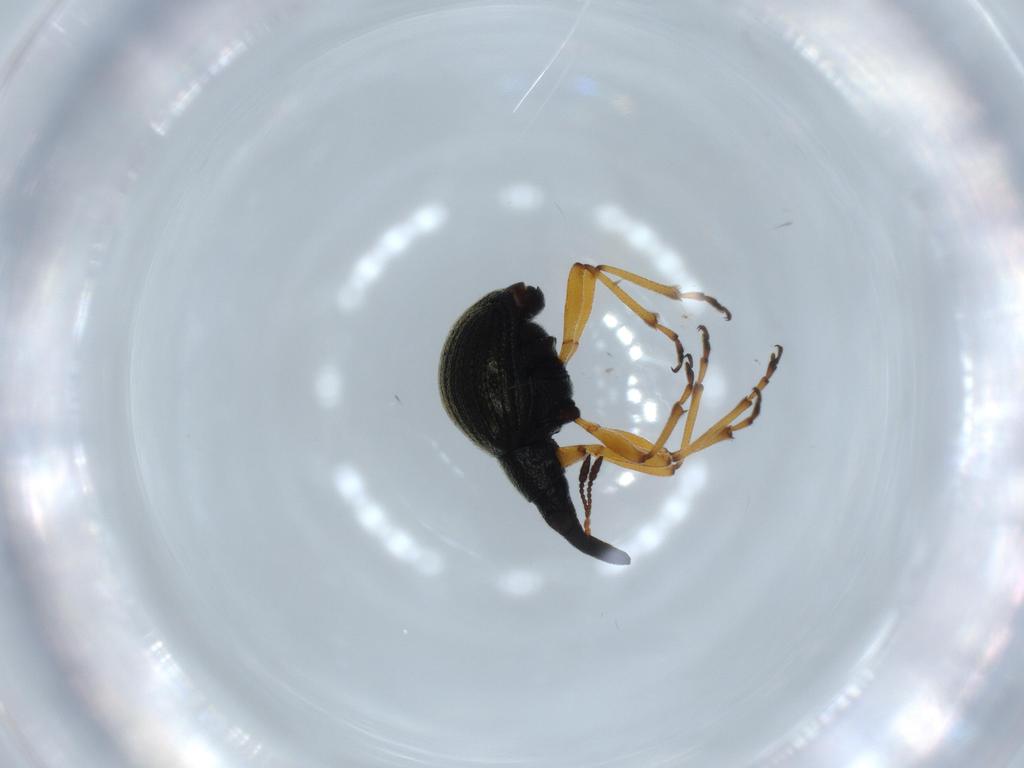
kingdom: Animalia
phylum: Arthropoda
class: Insecta
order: Coleoptera
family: Brentidae
